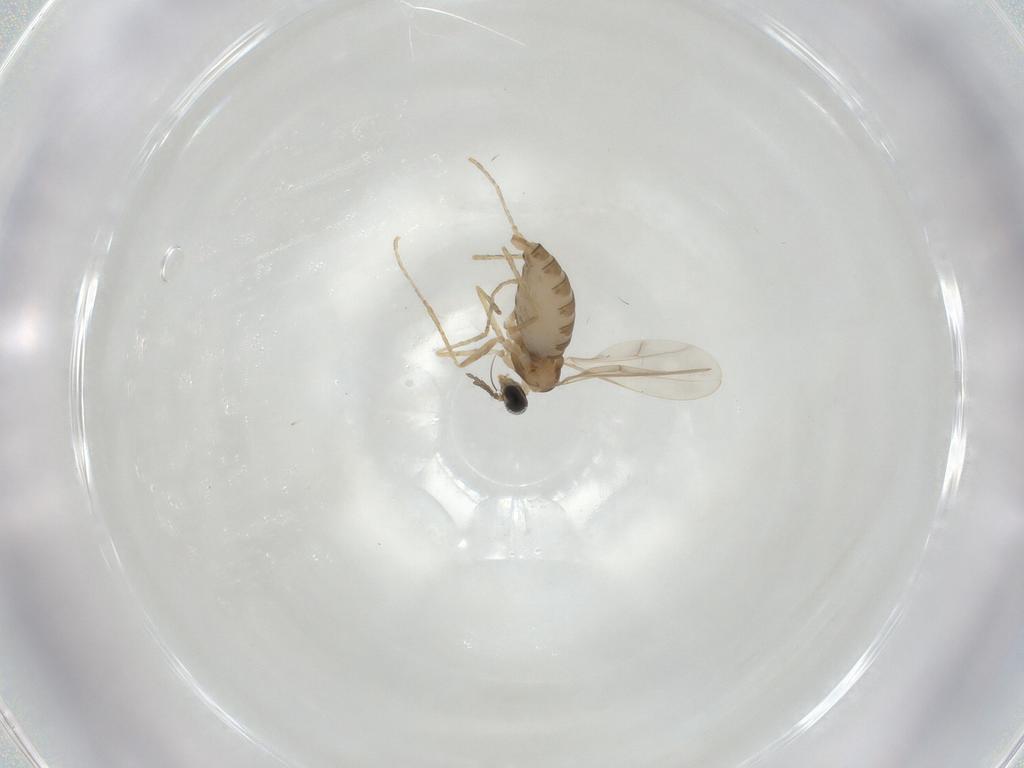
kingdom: Animalia
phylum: Arthropoda
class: Insecta
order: Diptera
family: Cecidomyiidae
